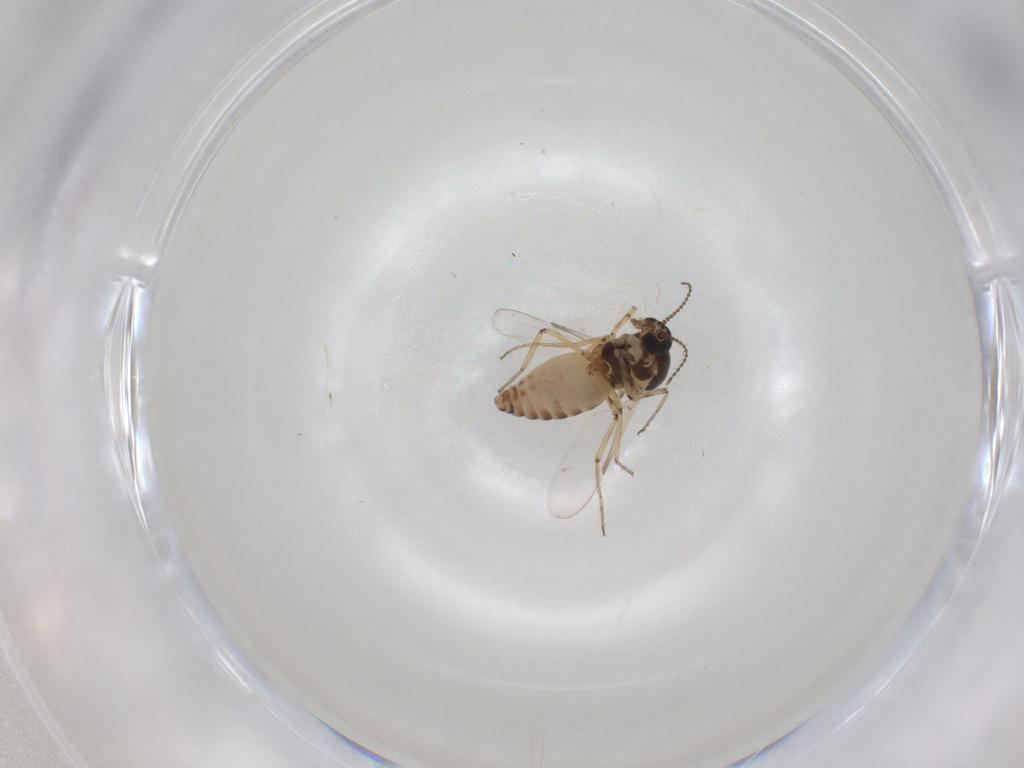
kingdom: Animalia
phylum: Arthropoda
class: Insecta
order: Diptera
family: Ceratopogonidae
